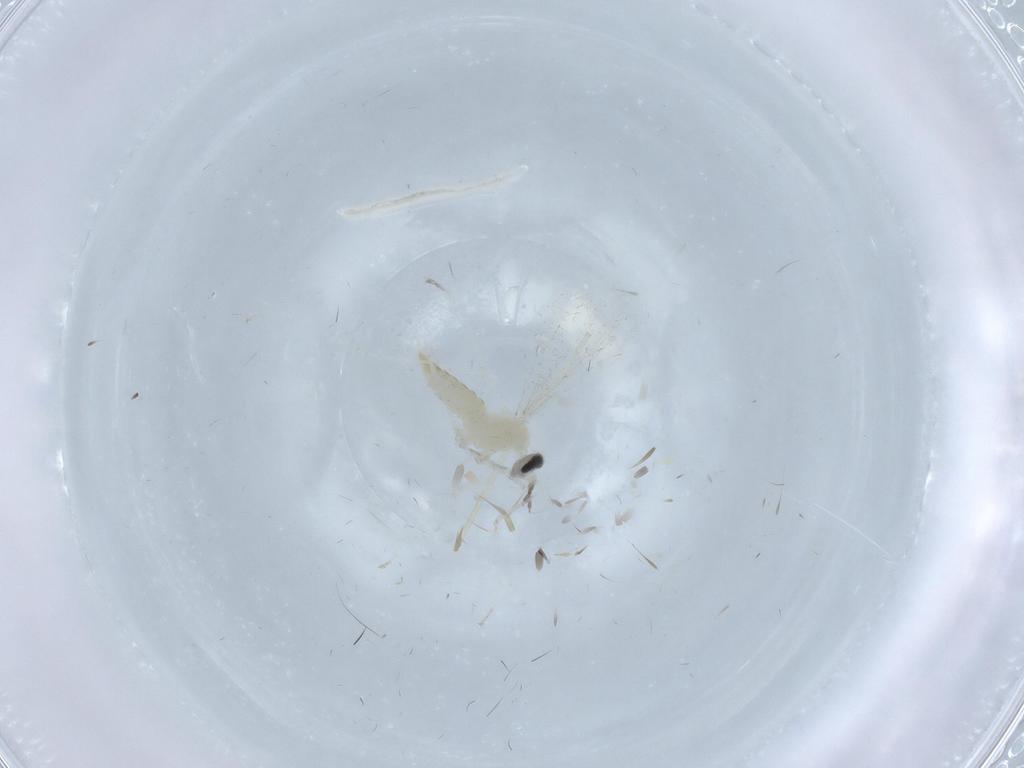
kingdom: Animalia
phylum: Arthropoda
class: Insecta
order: Diptera
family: Cecidomyiidae
